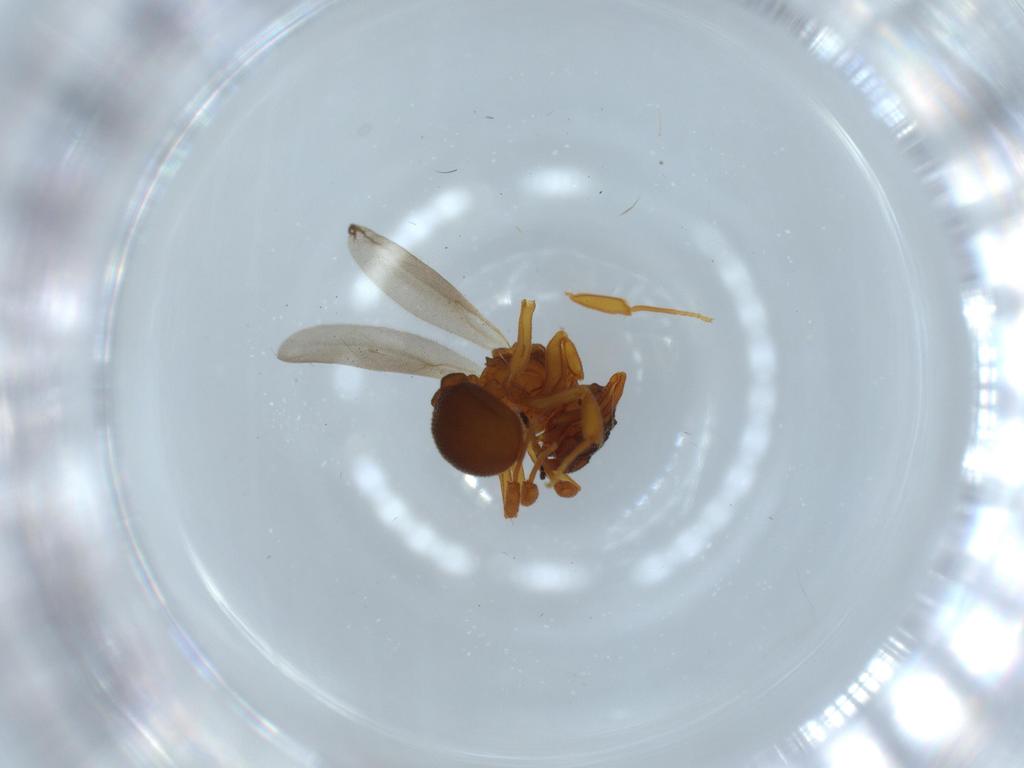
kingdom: Animalia
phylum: Arthropoda
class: Insecta
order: Hymenoptera
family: Formicidae
